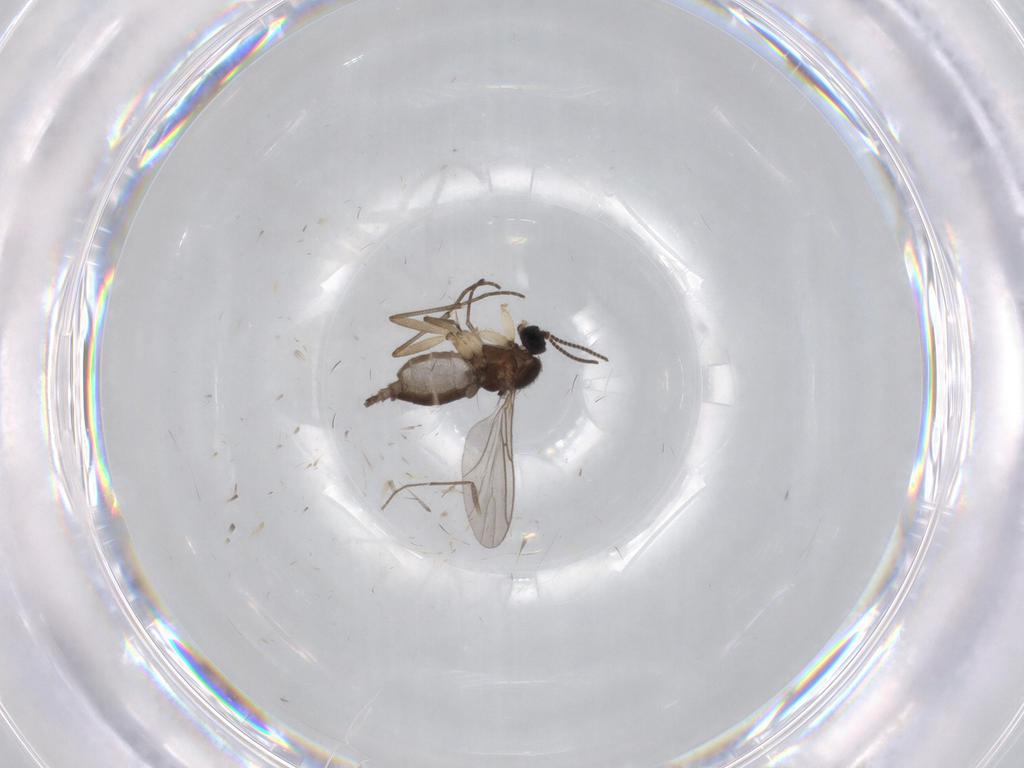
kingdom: Animalia
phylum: Arthropoda
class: Insecta
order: Diptera
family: Sciaridae
